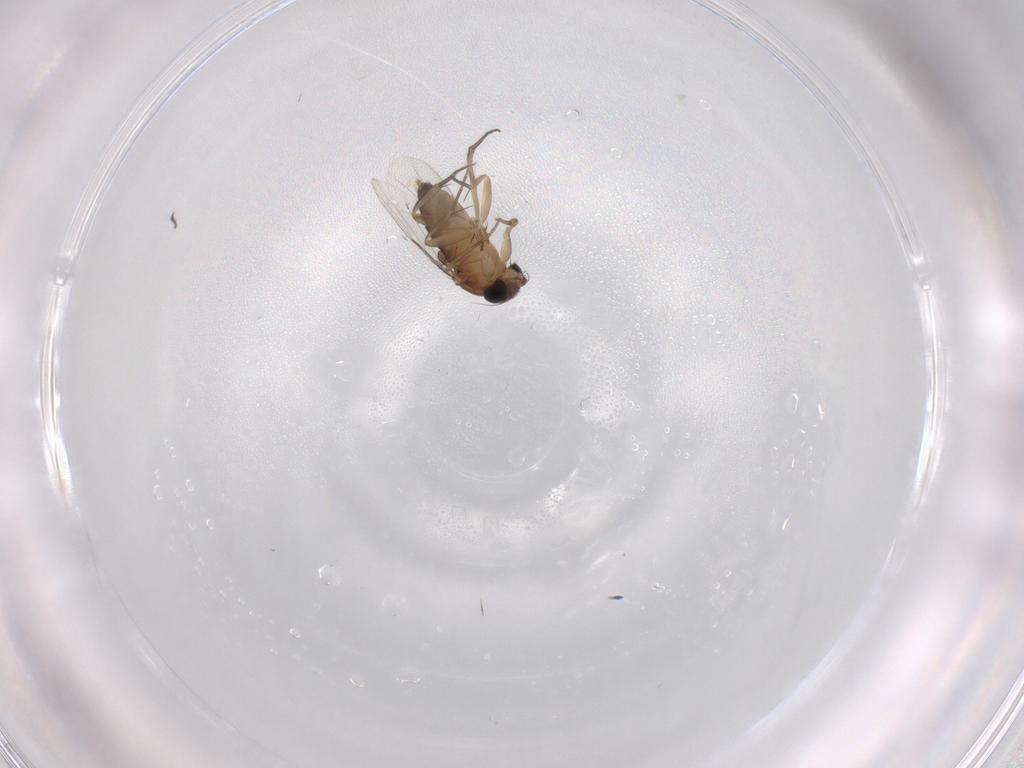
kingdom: Animalia
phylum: Arthropoda
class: Insecta
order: Diptera
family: Phoridae
